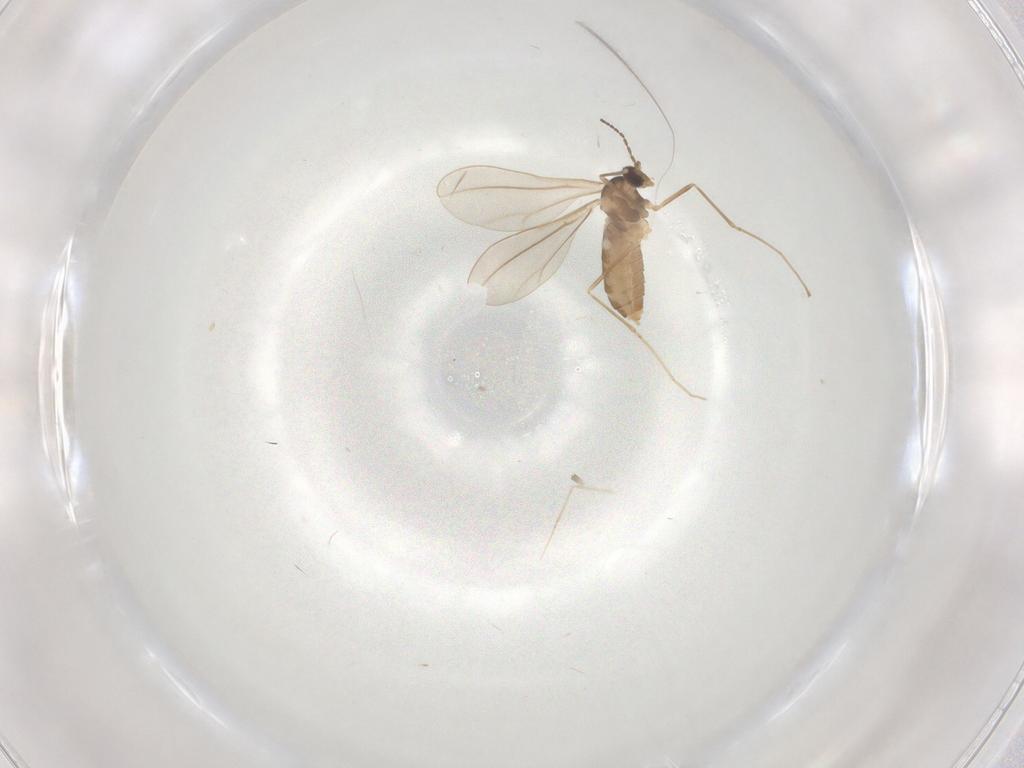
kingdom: Animalia
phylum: Arthropoda
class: Insecta
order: Diptera
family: Cecidomyiidae
